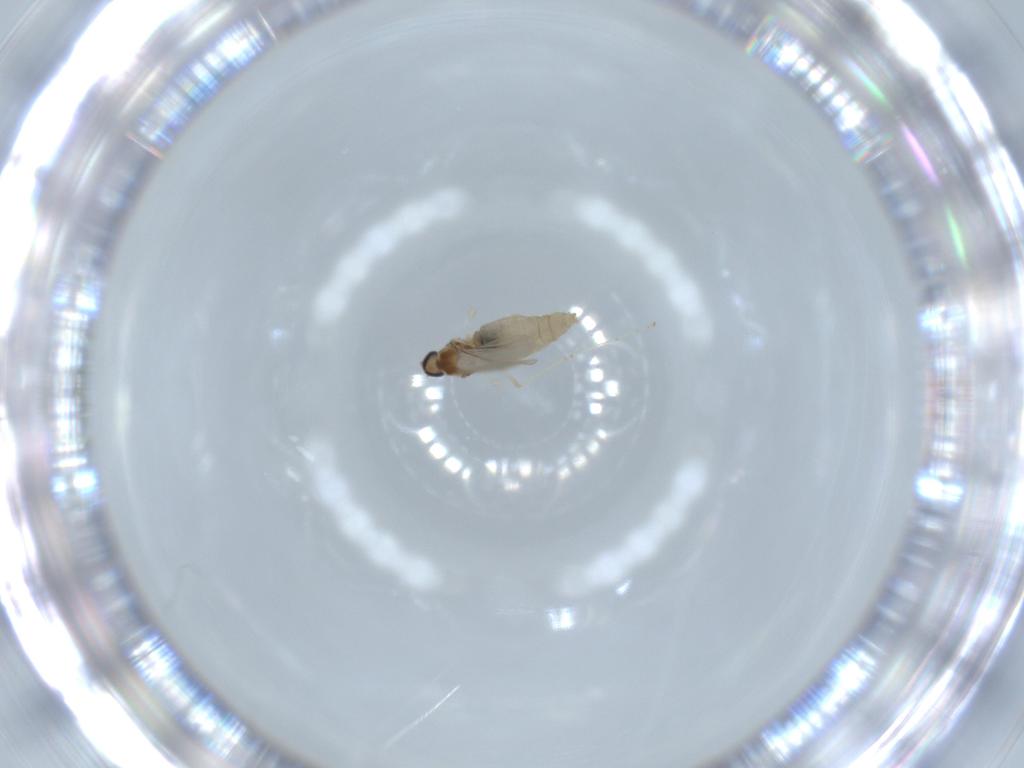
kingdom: Animalia
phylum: Arthropoda
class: Insecta
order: Diptera
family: Cecidomyiidae
